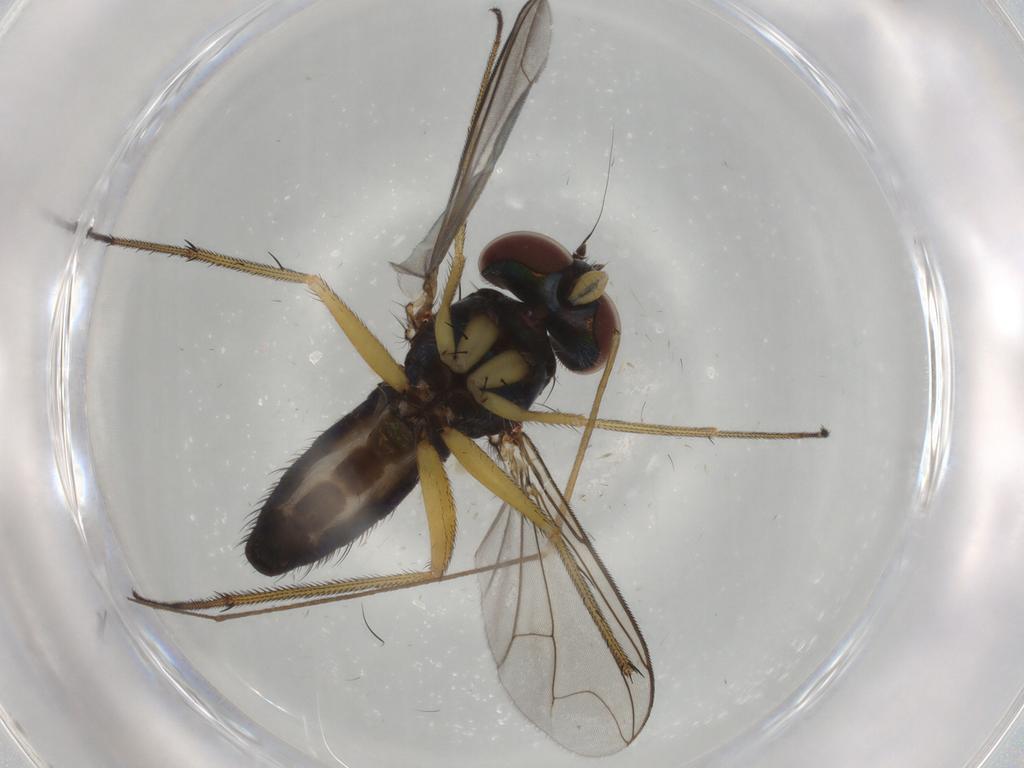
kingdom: Animalia
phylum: Arthropoda
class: Insecta
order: Diptera
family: Dolichopodidae
